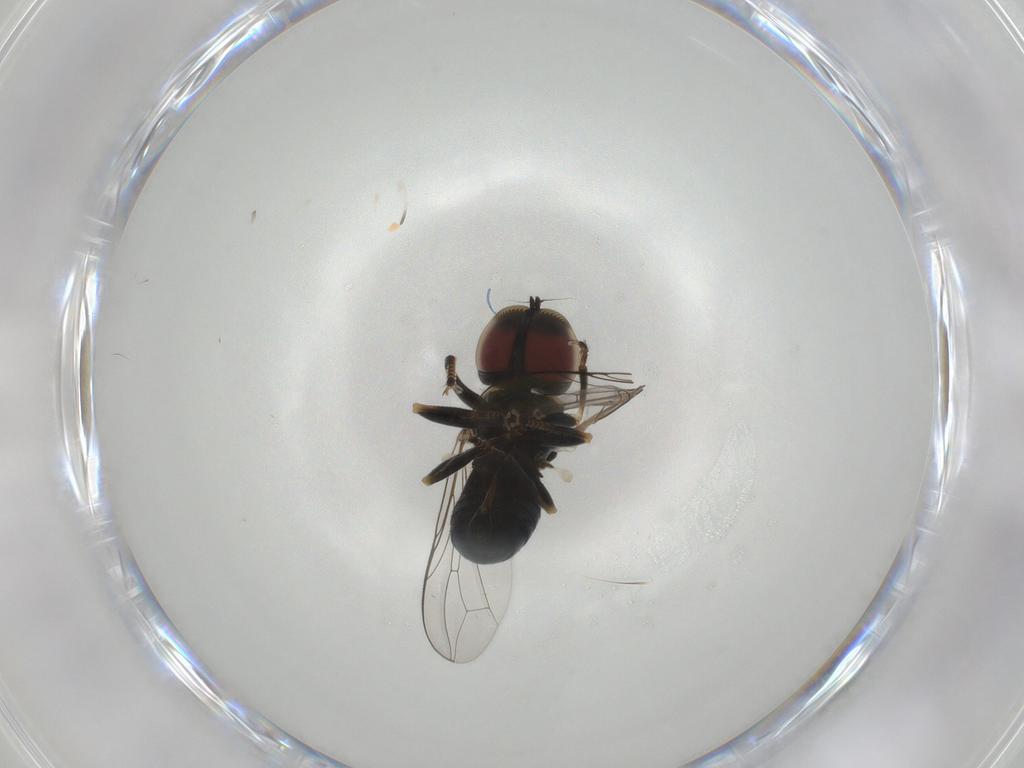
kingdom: Animalia
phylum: Arthropoda
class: Insecta
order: Diptera
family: Pipunculidae
